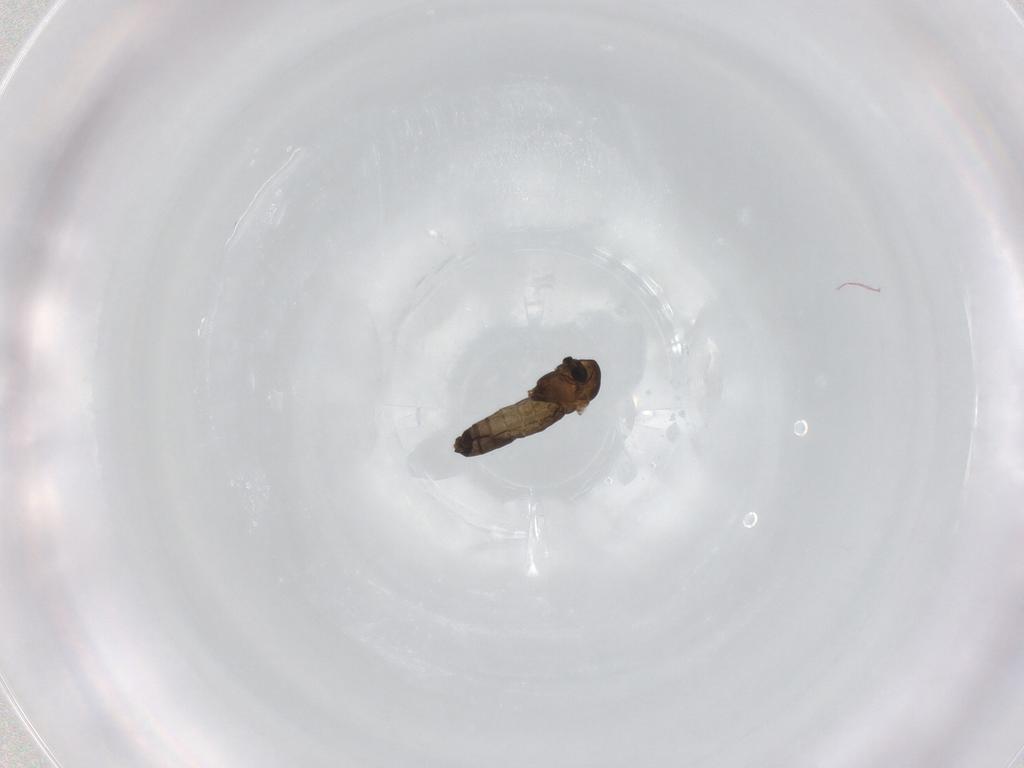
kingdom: Animalia
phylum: Arthropoda
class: Insecta
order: Diptera
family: Chironomidae
